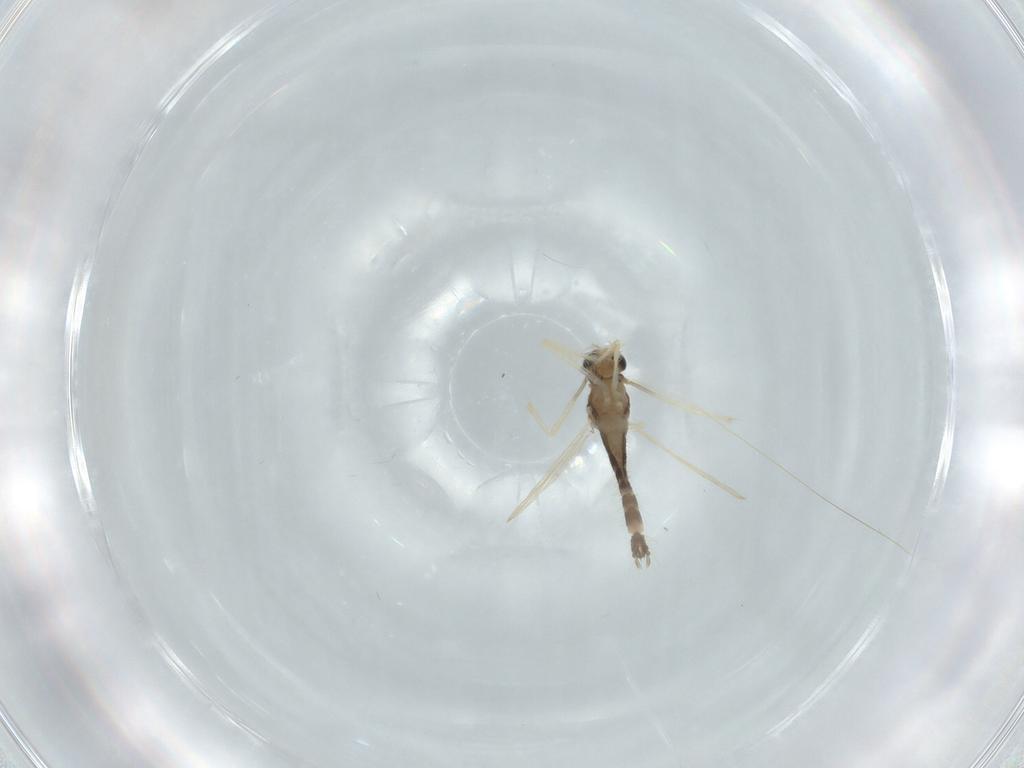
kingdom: Animalia
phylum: Arthropoda
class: Insecta
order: Diptera
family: Chironomidae
